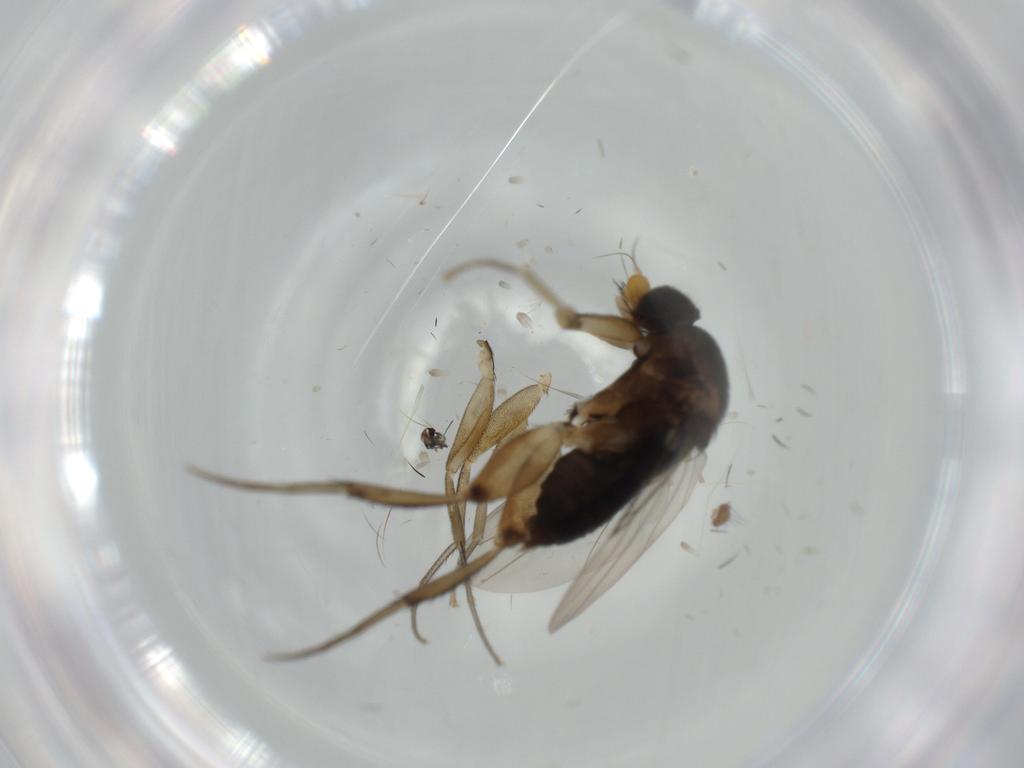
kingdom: Animalia
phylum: Arthropoda
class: Insecta
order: Diptera
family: Phoridae
